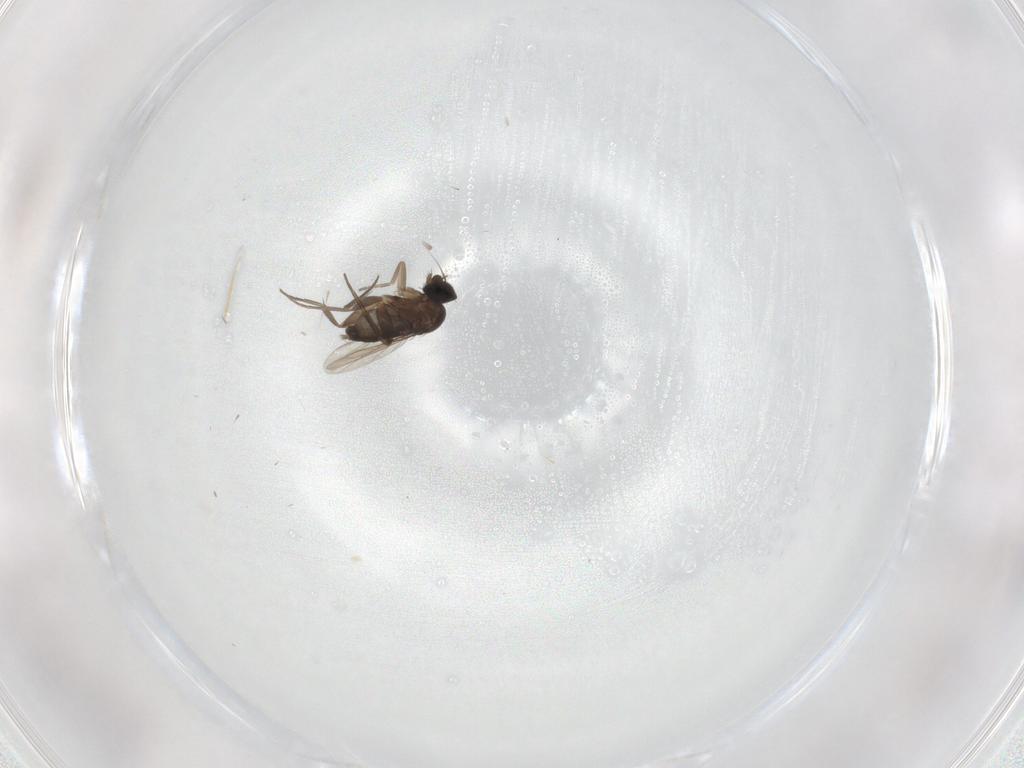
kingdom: Animalia
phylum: Arthropoda
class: Insecta
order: Diptera
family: Phoridae
